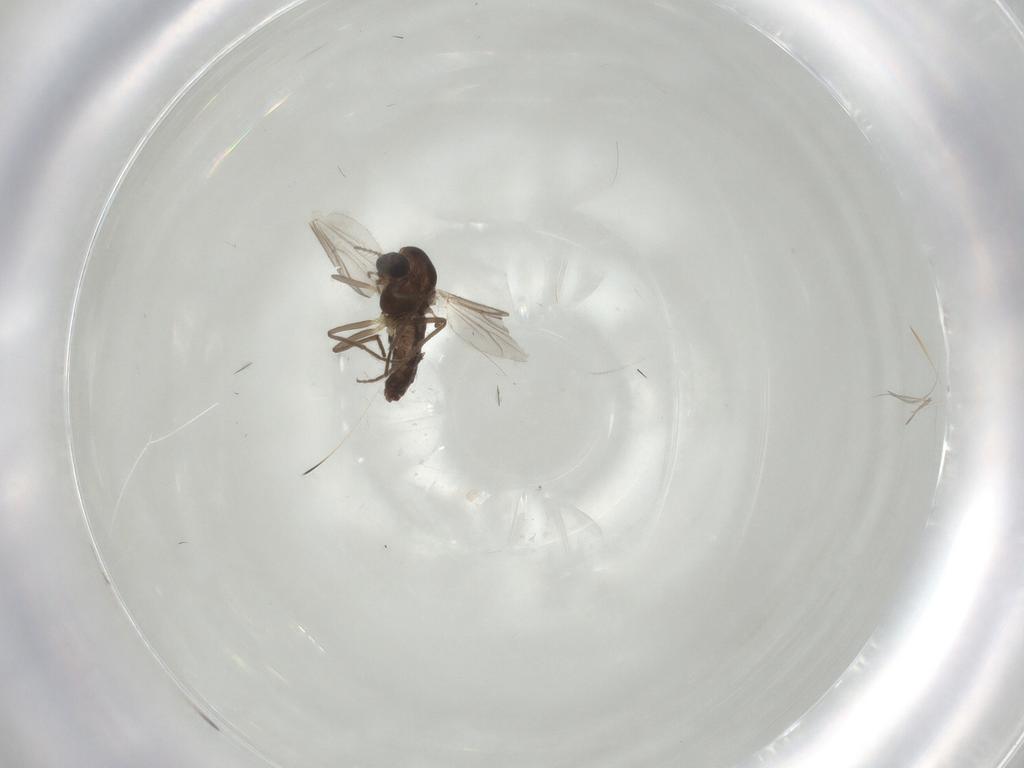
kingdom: Animalia
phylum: Arthropoda
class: Insecta
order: Diptera
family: Chironomidae
